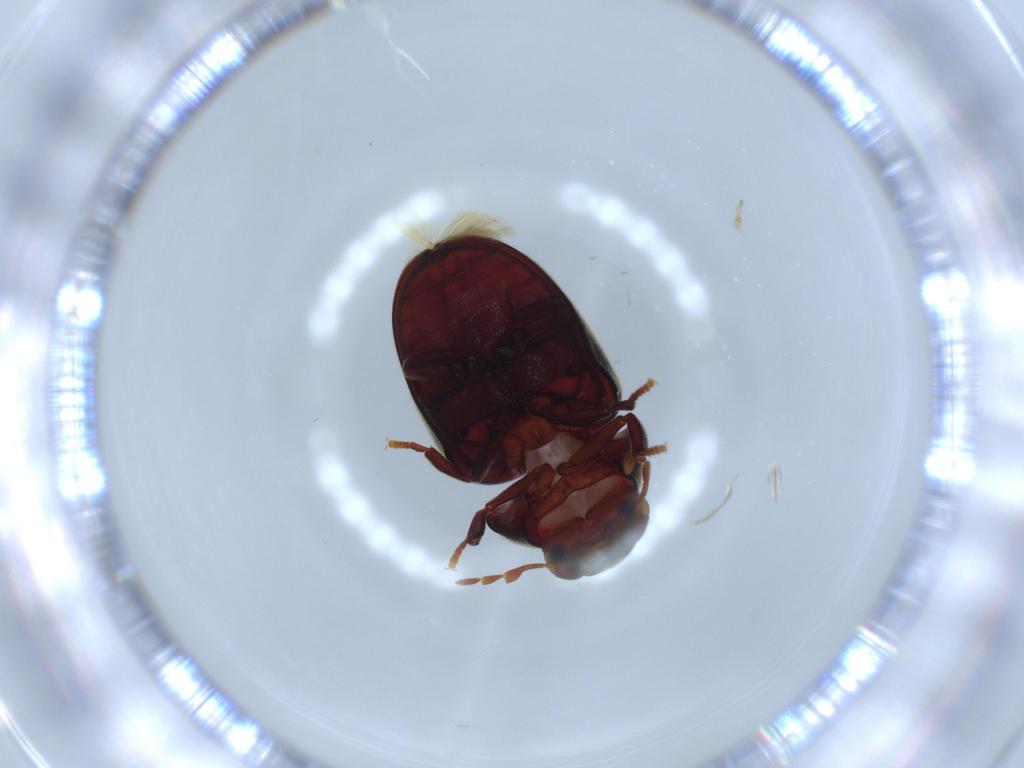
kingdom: Animalia
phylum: Arthropoda
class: Insecta
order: Coleoptera
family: Ptinidae
